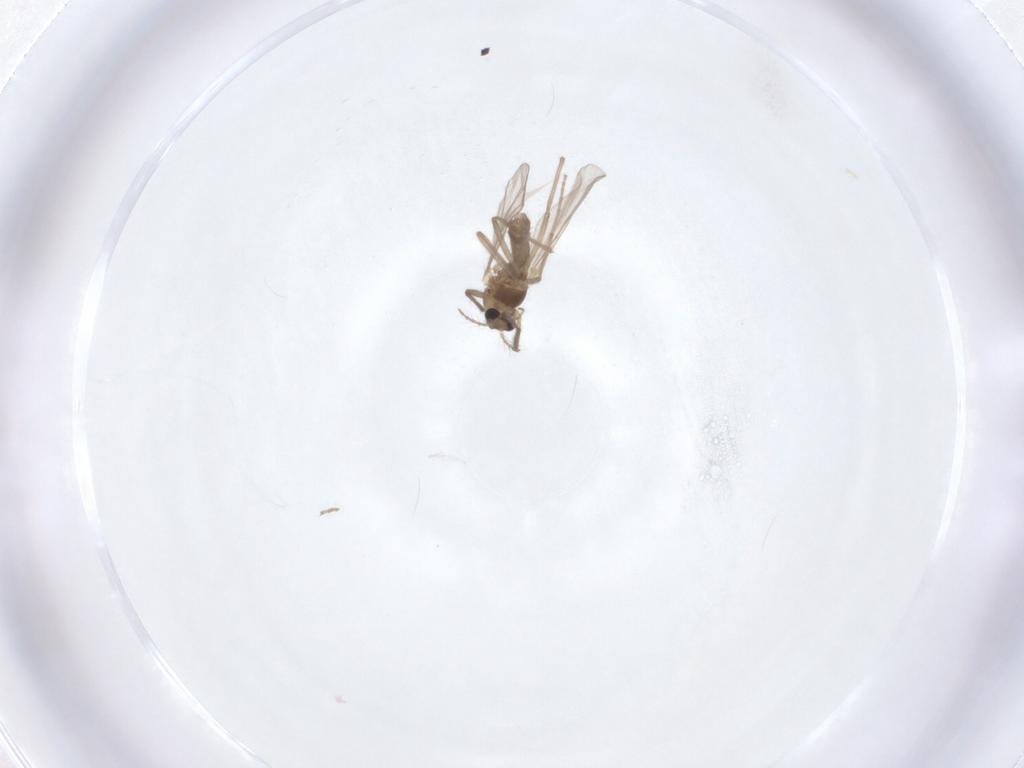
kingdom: Animalia
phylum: Arthropoda
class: Insecta
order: Diptera
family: Chironomidae
